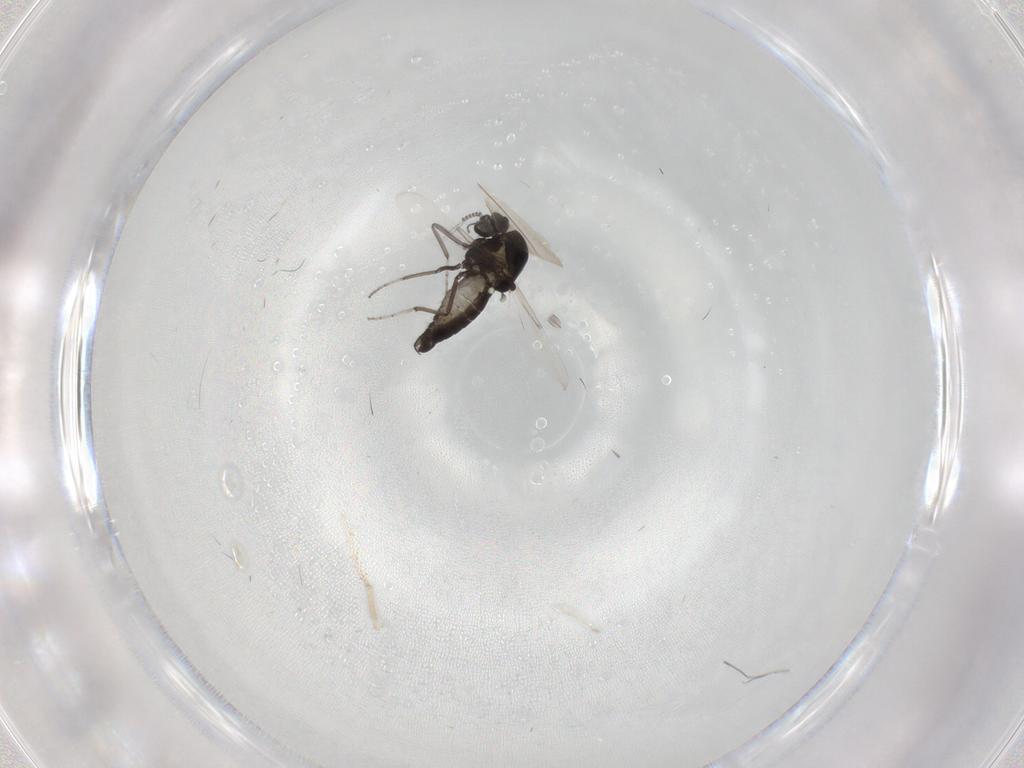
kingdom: Animalia
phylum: Arthropoda
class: Insecta
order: Diptera
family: Ceratopogonidae
